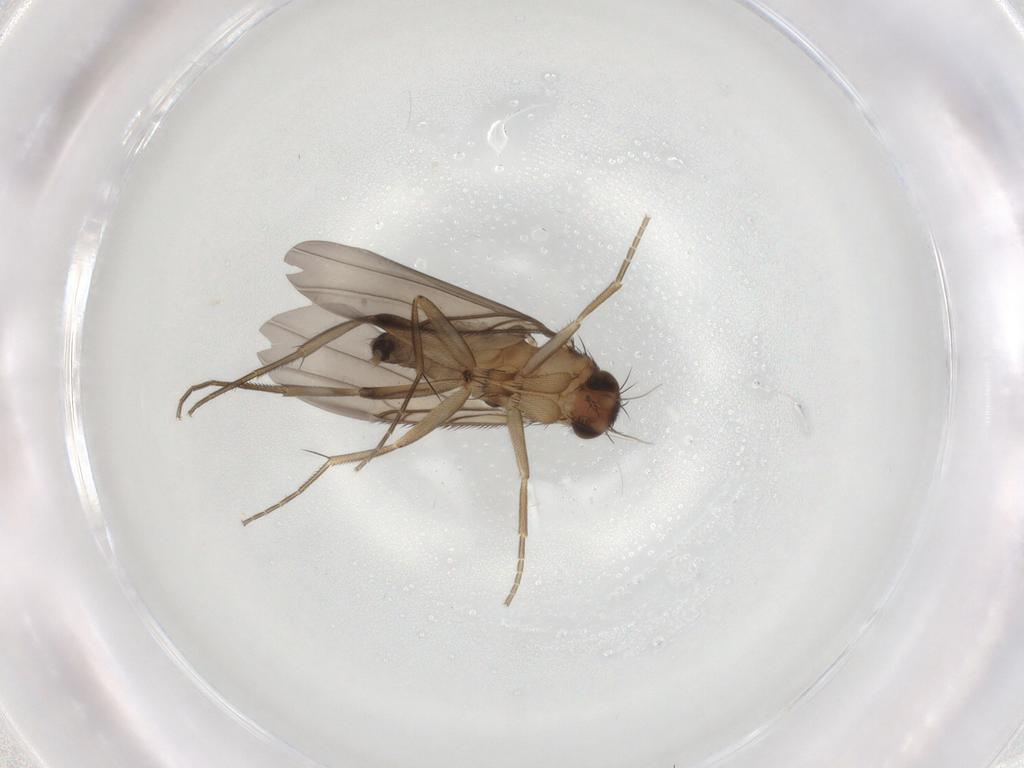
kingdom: Animalia
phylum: Arthropoda
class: Insecta
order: Diptera
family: Phoridae
